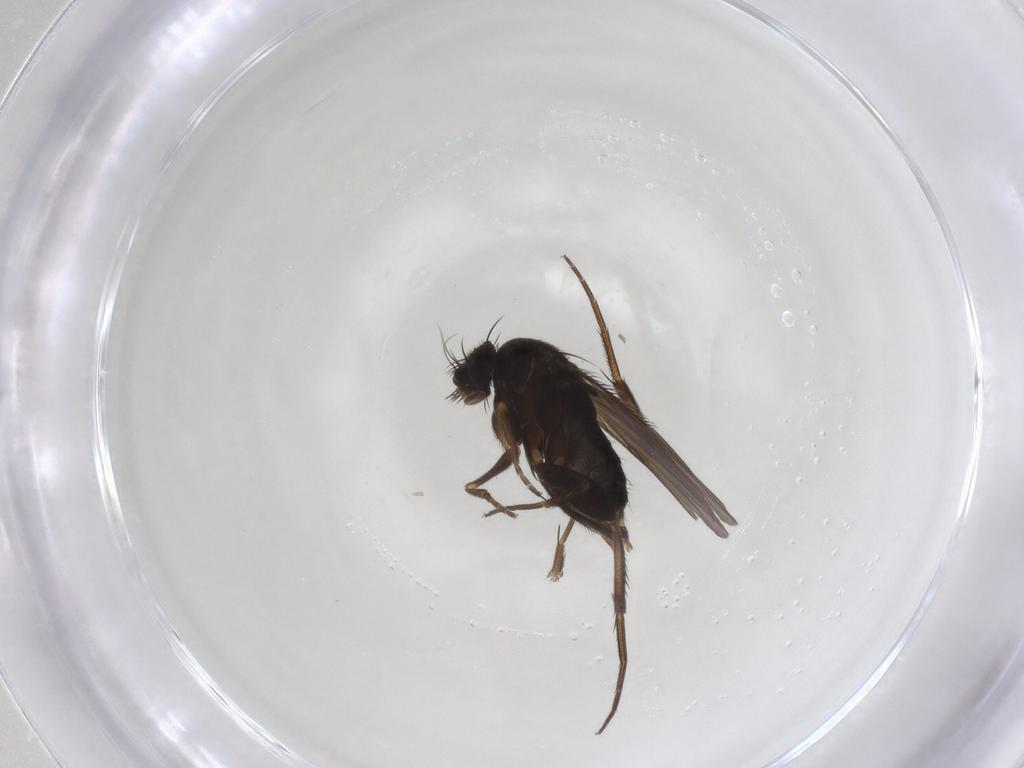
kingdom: Animalia
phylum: Arthropoda
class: Insecta
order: Diptera
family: Phoridae
